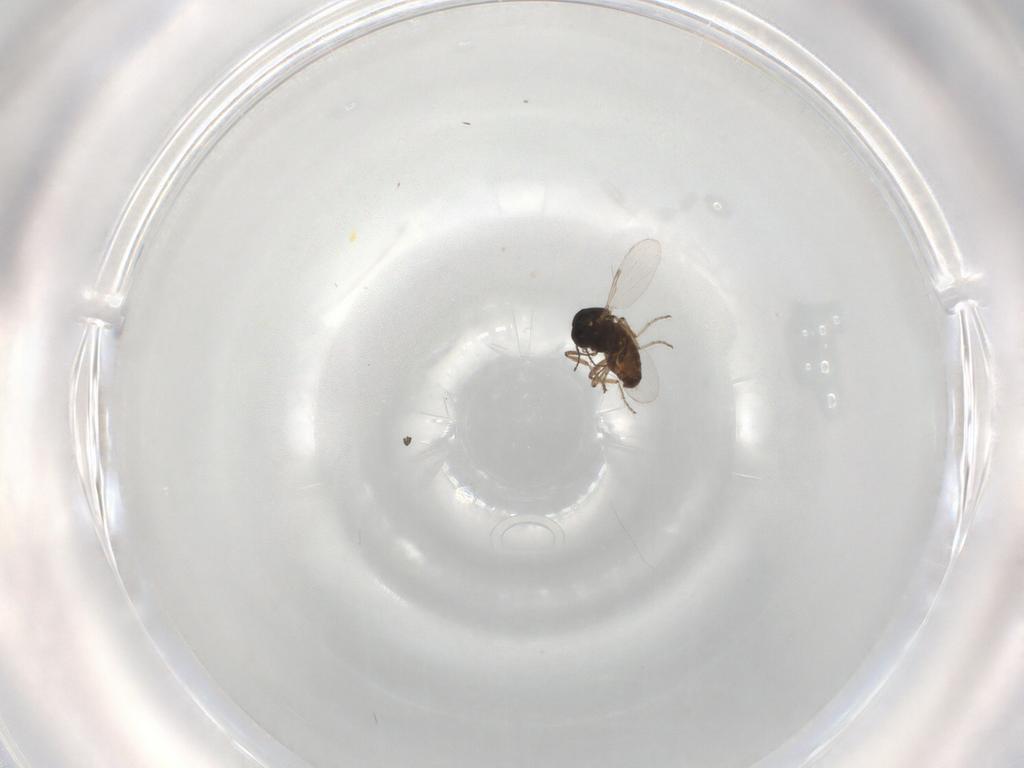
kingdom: Animalia
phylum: Arthropoda
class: Insecta
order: Diptera
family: Ceratopogonidae
